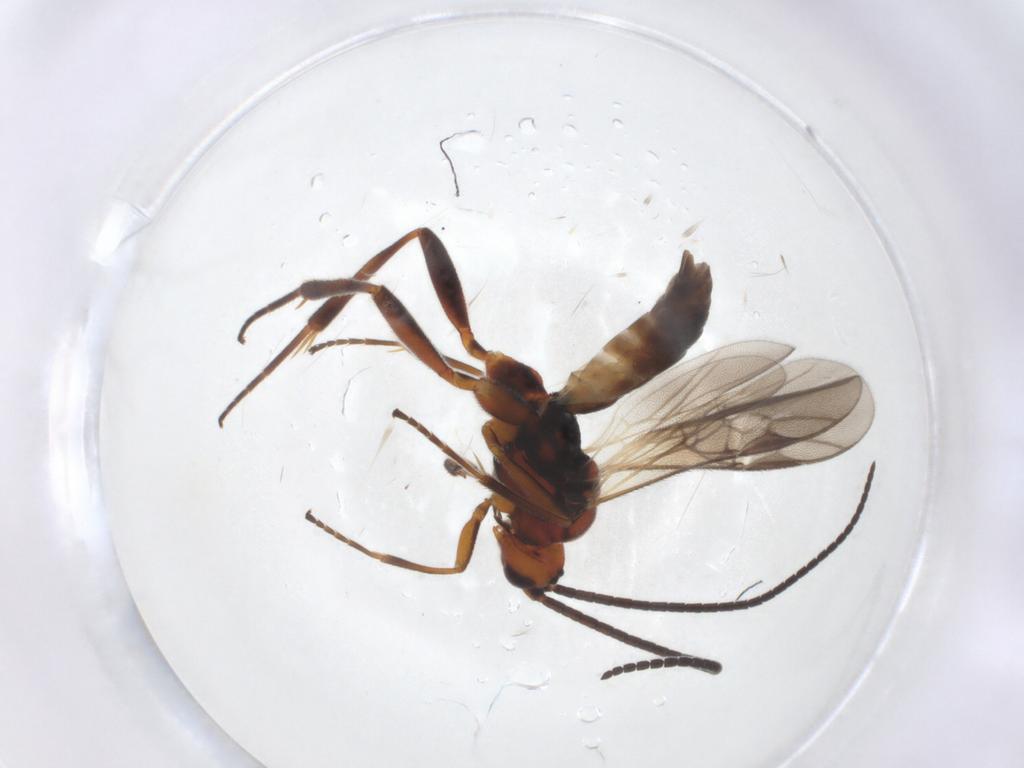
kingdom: Animalia
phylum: Arthropoda
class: Insecta
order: Hymenoptera
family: Braconidae
